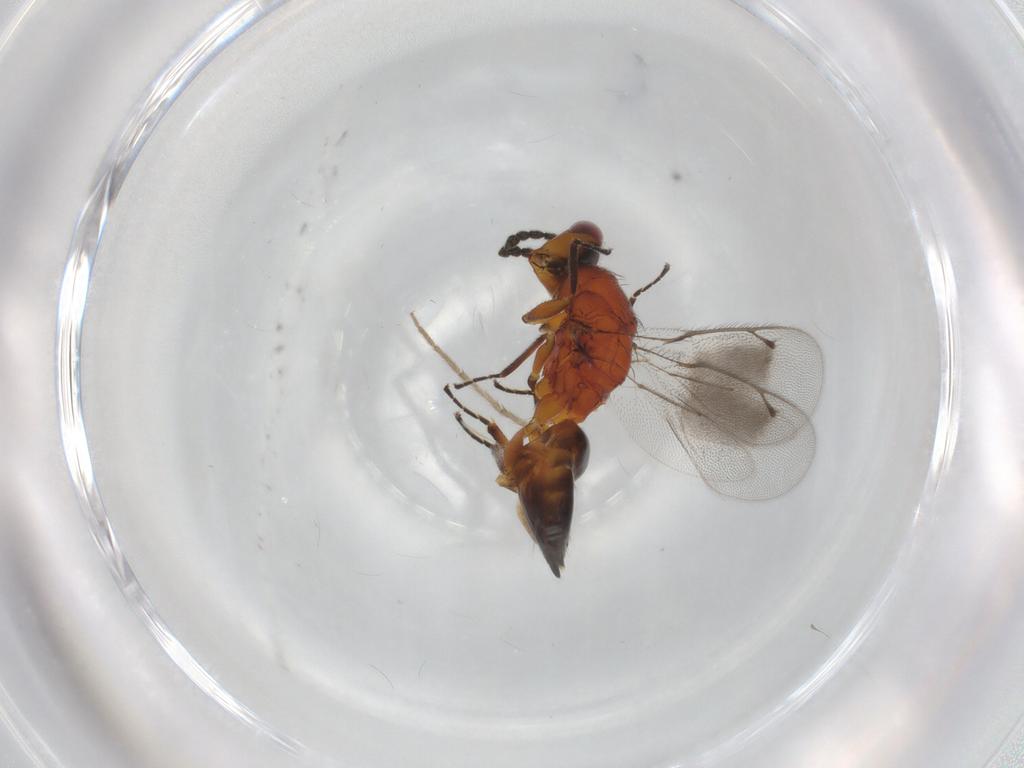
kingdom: Animalia
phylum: Arthropoda
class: Insecta
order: Hymenoptera
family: Eulophidae
